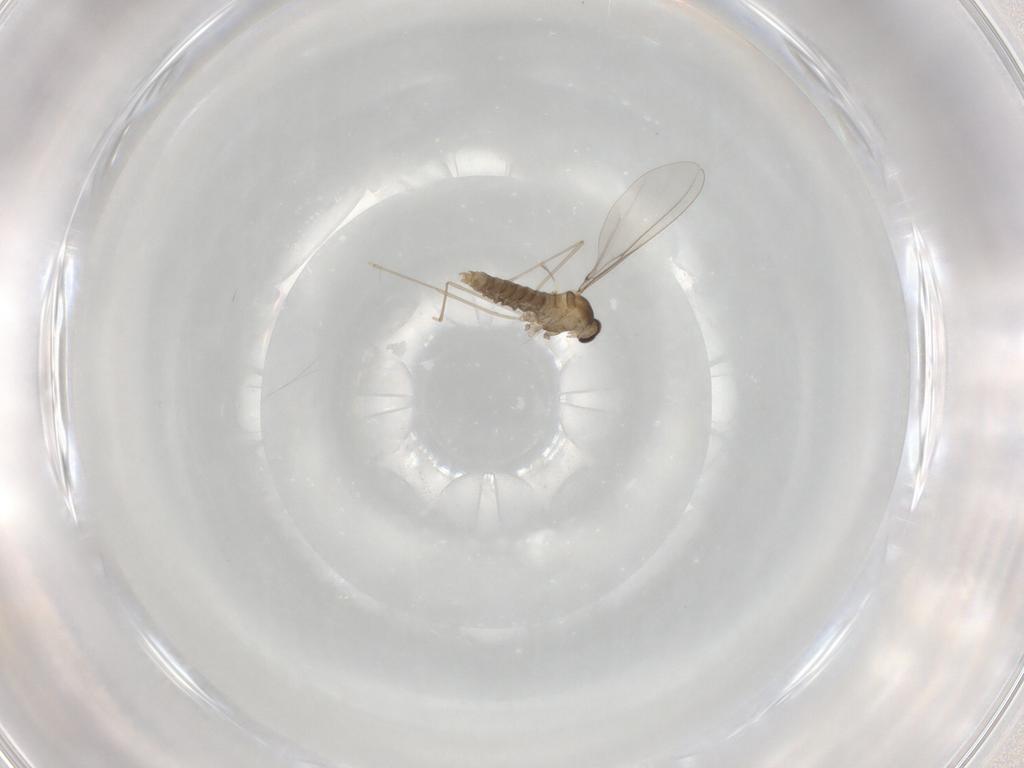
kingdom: Animalia
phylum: Arthropoda
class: Insecta
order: Diptera
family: Cecidomyiidae
